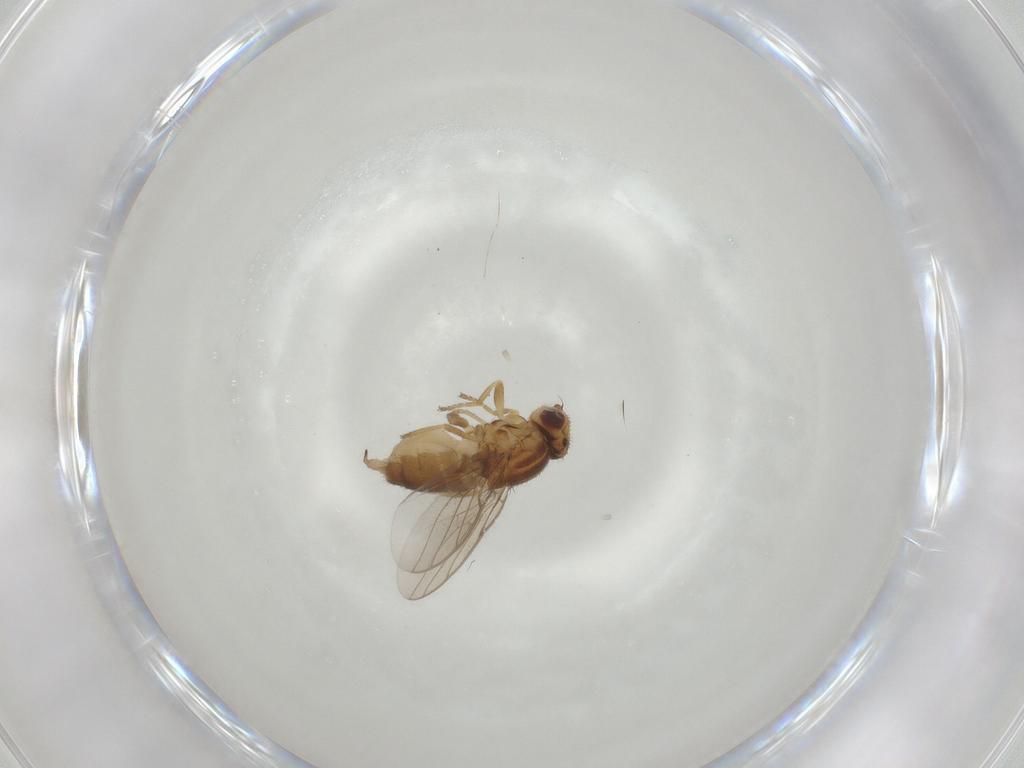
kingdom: Animalia
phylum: Arthropoda
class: Insecta
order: Diptera
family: Chloropidae
